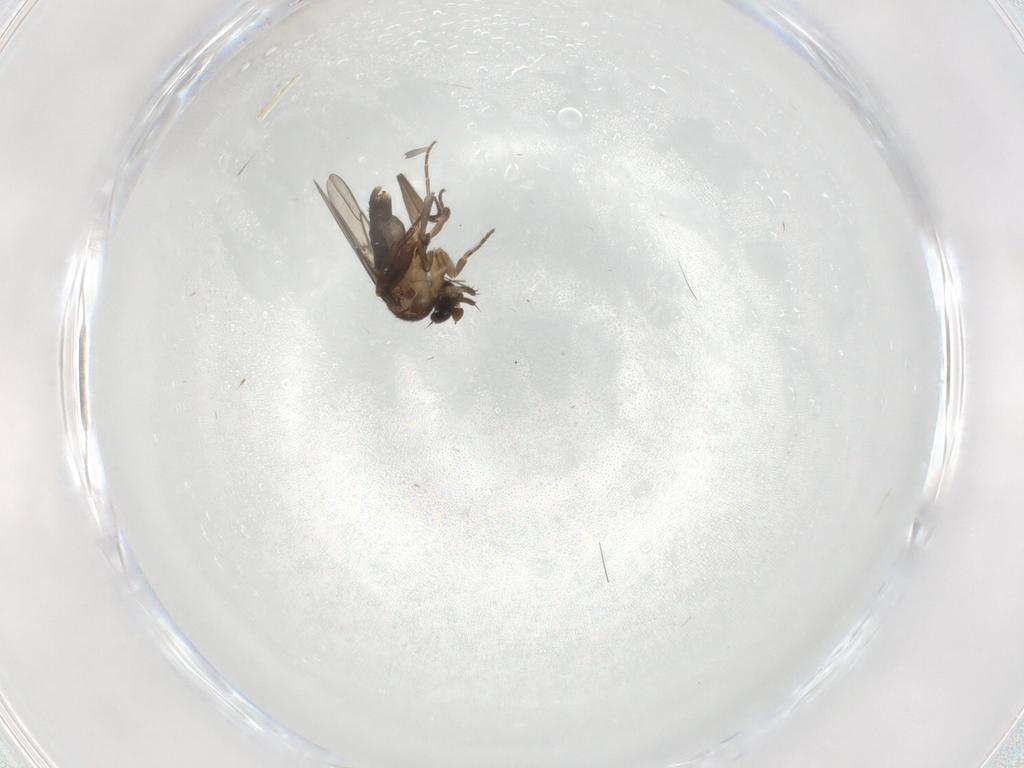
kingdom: Animalia
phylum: Arthropoda
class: Insecta
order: Diptera
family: Phoridae
